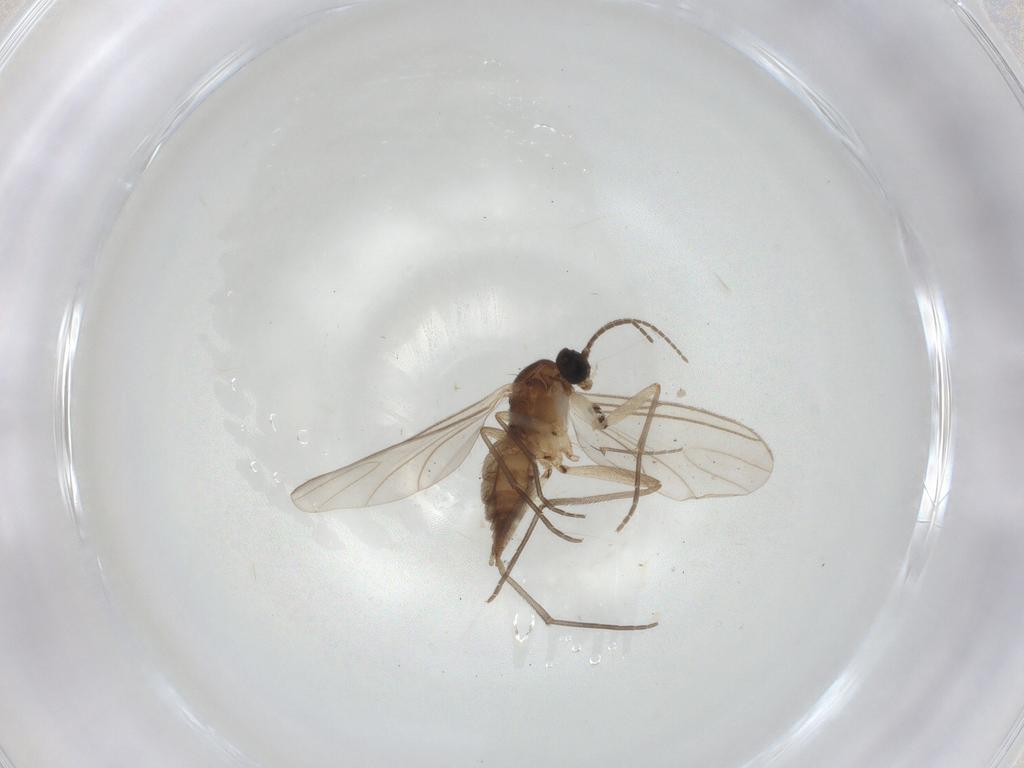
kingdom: Animalia
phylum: Arthropoda
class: Insecta
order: Diptera
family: Sciaridae
